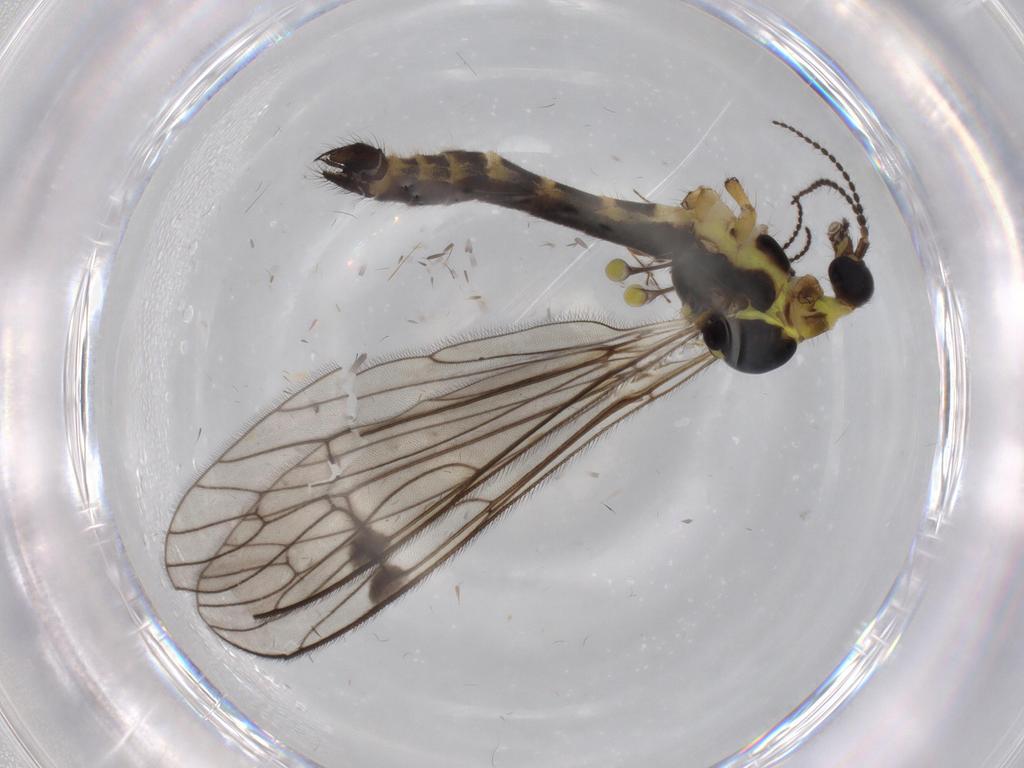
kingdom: Animalia
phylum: Arthropoda
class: Insecta
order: Diptera
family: Limoniidae
